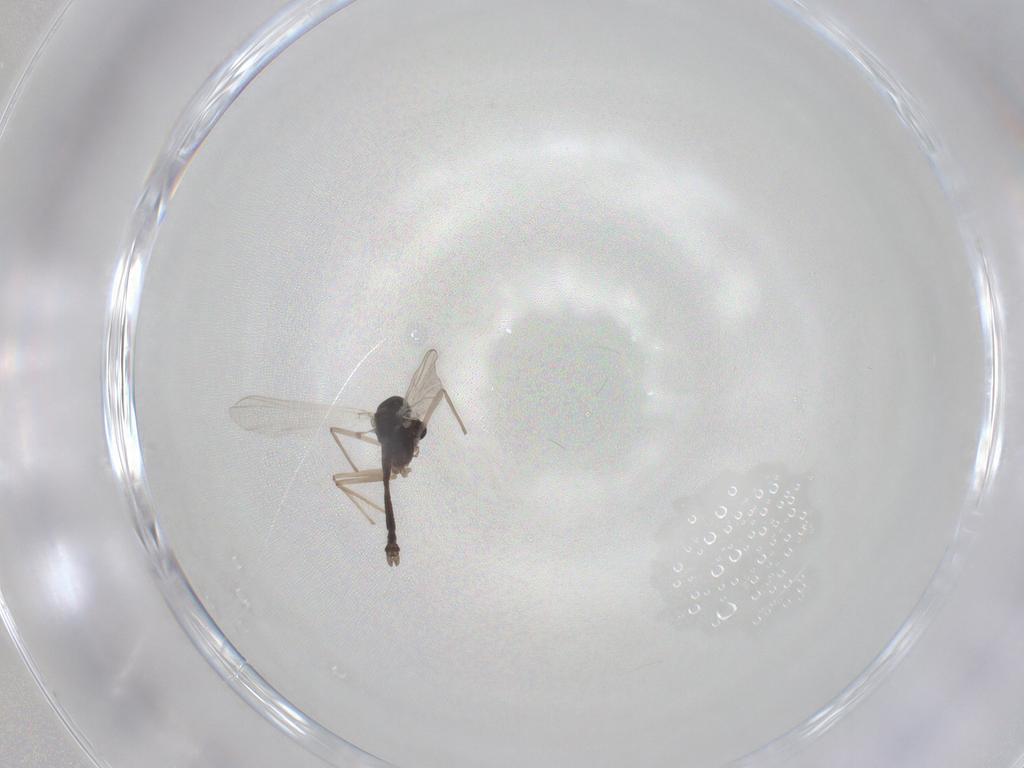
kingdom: Animalia
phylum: Arthropoda
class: Insecta
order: Diptera
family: Chironomidae
